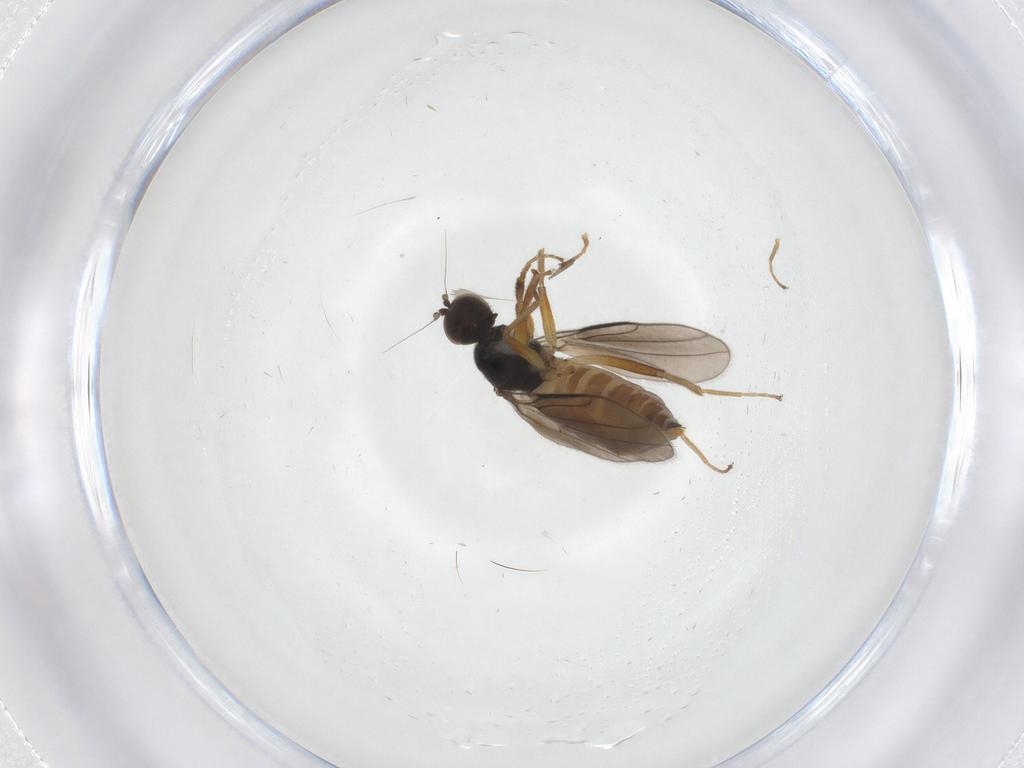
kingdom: Animalia
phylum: Arthropoda
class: Insecta
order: Diptera
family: Hybotidae
